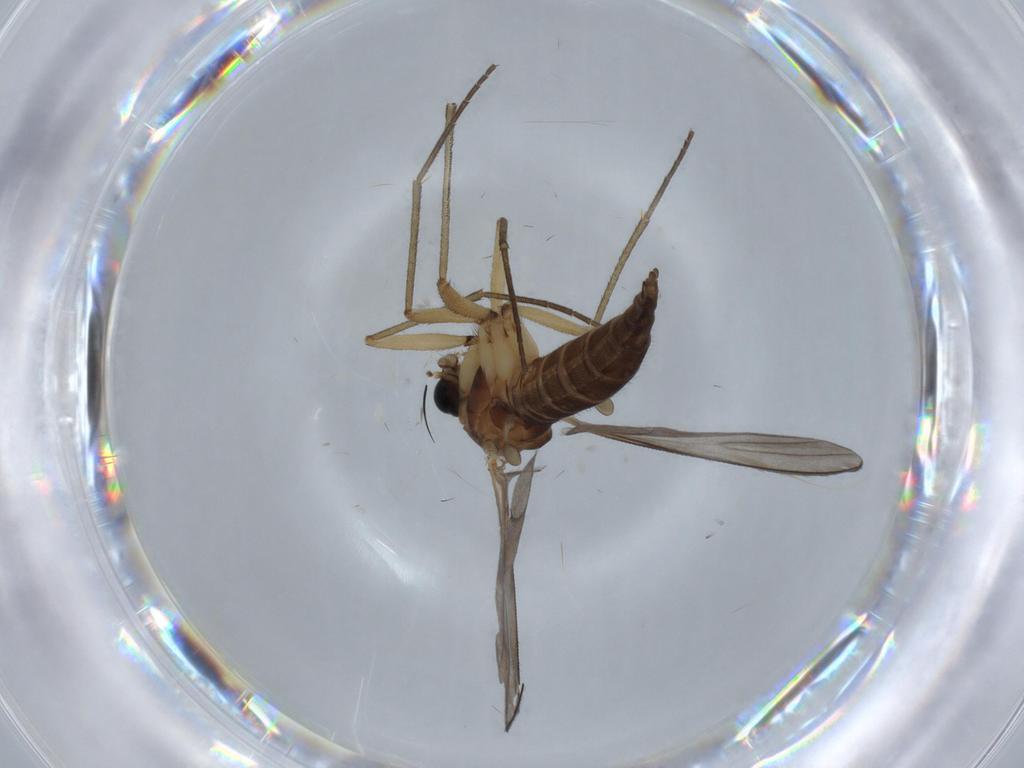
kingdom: Animalia
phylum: Arthropoda
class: Insecta
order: Diptera
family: Sciaridae
